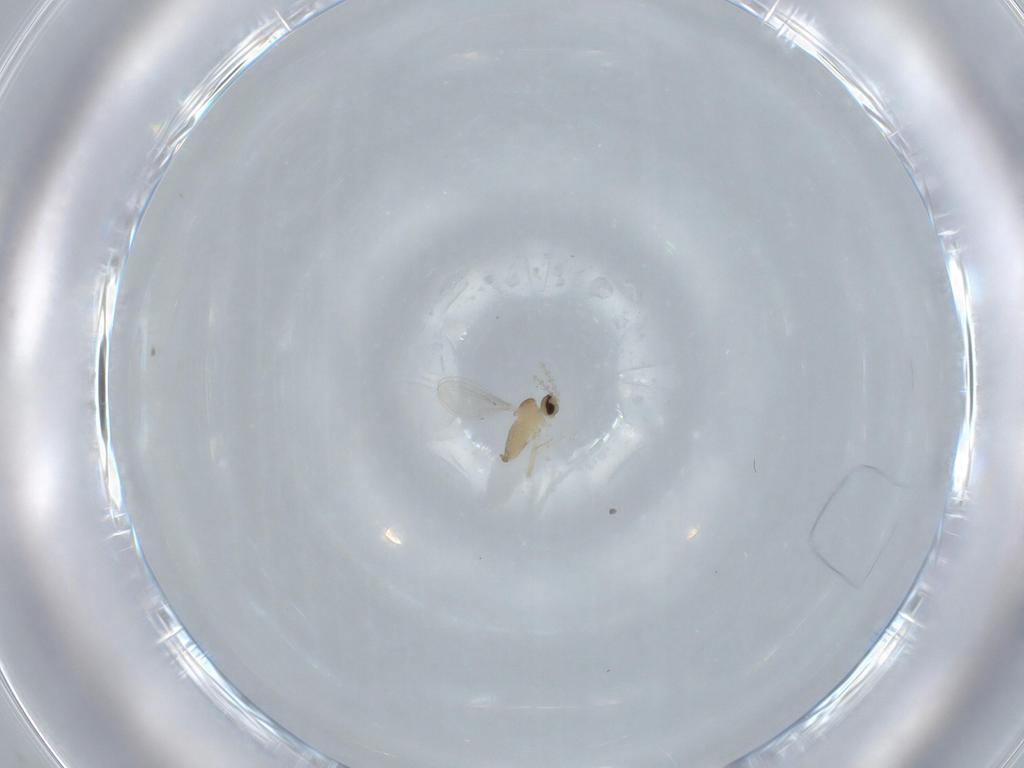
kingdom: Animalia
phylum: Arthropoda
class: Insecta
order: Diptera
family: Cecidomyiidae
